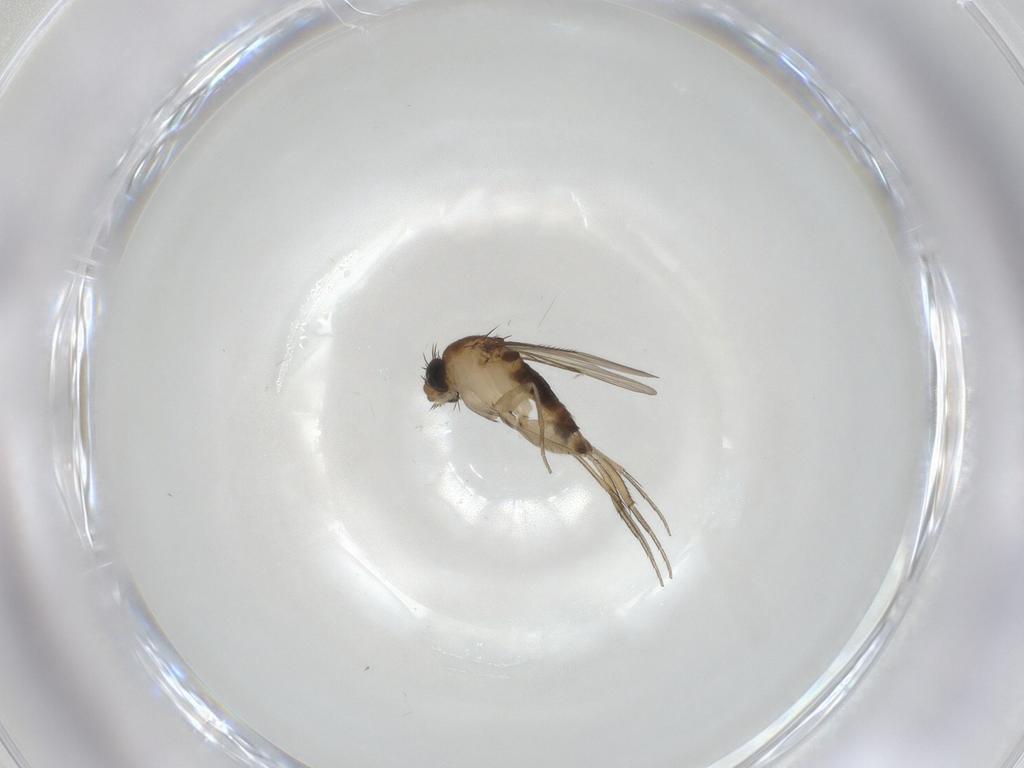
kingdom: Animalia
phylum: Arthropoda
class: Insecta
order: Diptera
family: Phoridae
